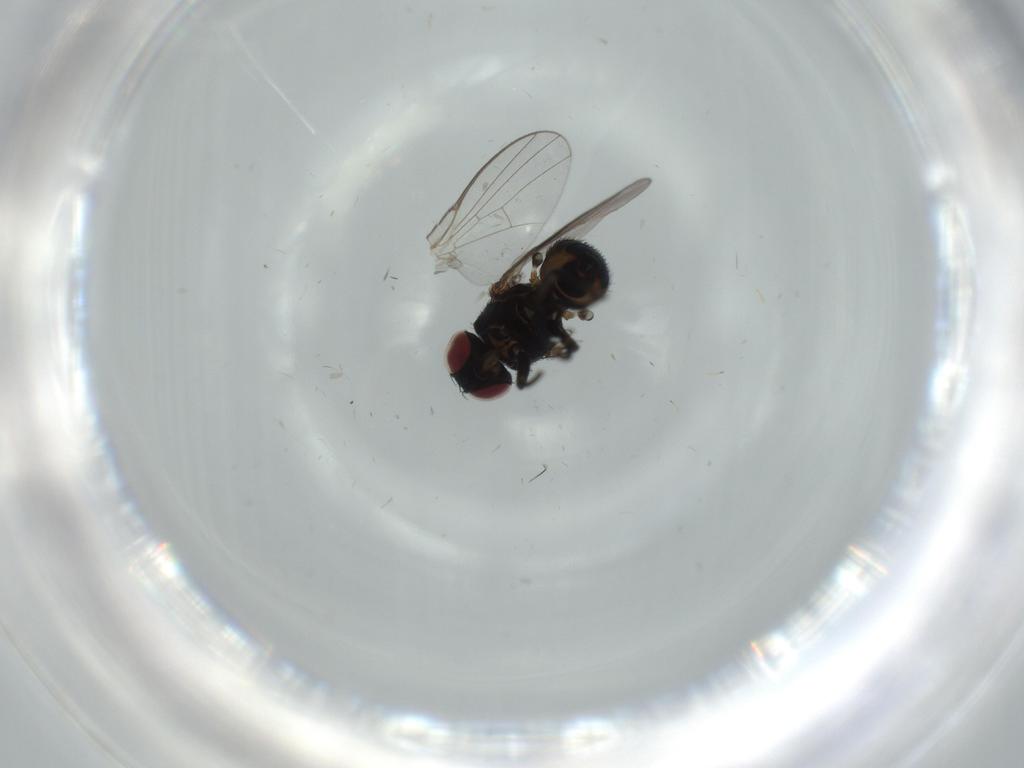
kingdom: Animalia
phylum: Arthropoda
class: Insecta
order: Diptera
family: Agromyzidae
